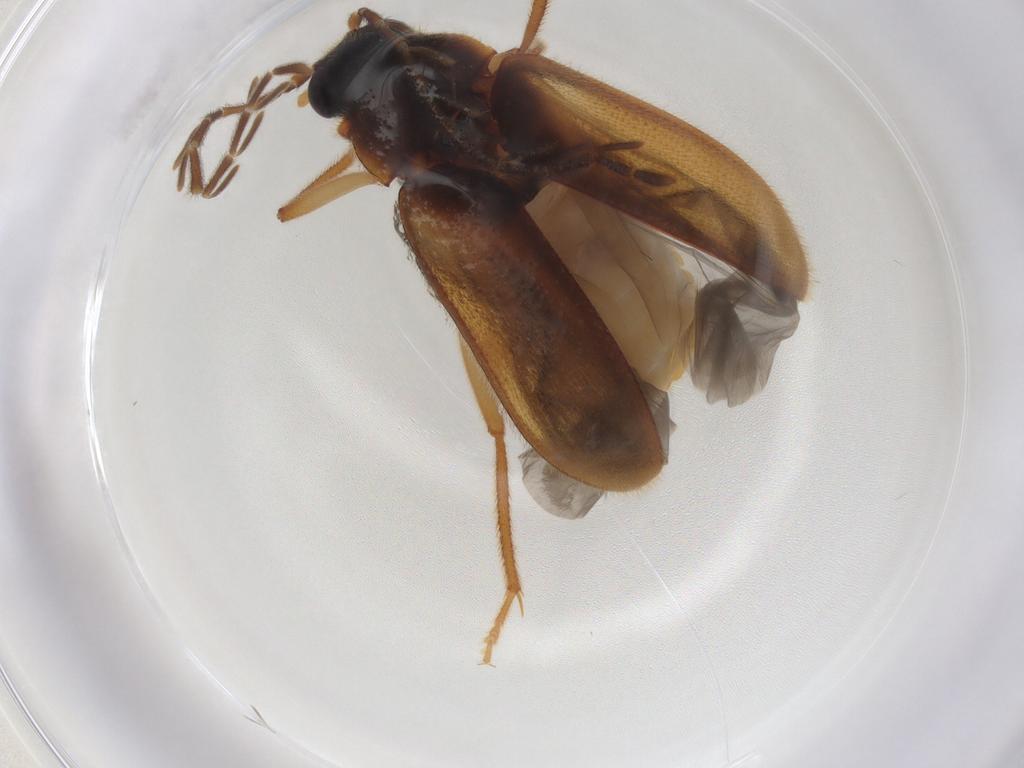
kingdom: Animalia
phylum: Arthropoda
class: Insecta
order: Coleoptera
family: Ptilodactylidae
